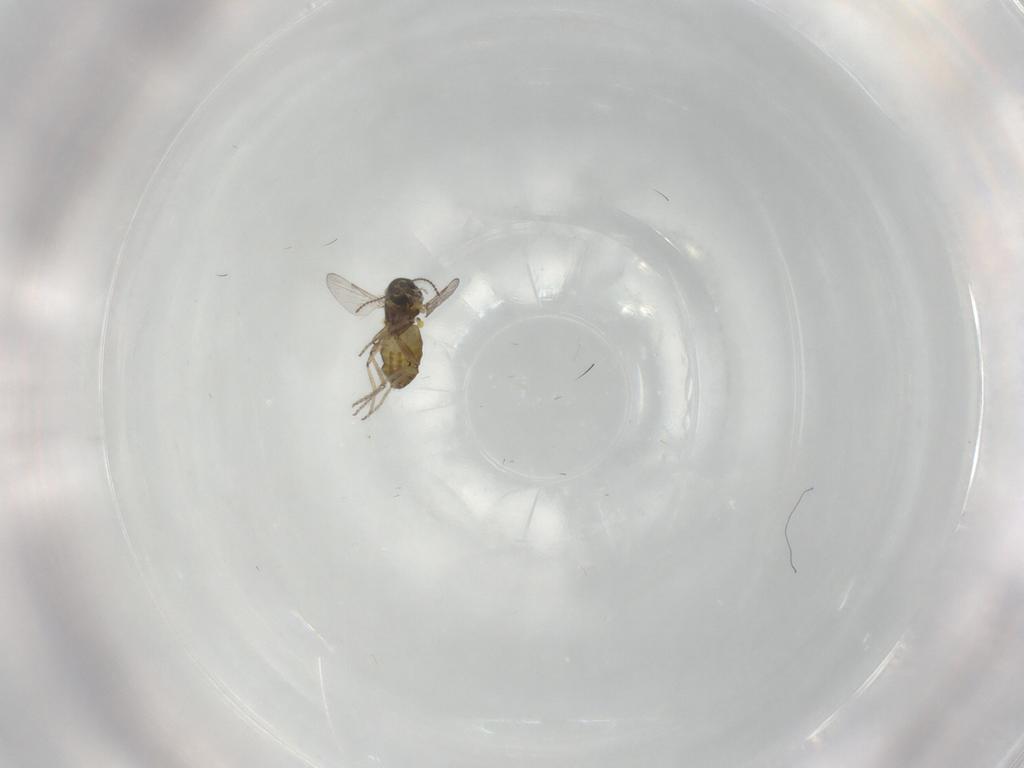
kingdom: Animalia
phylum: Arthropoda
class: Insecta
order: Diptera
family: Ceratopogonidae
